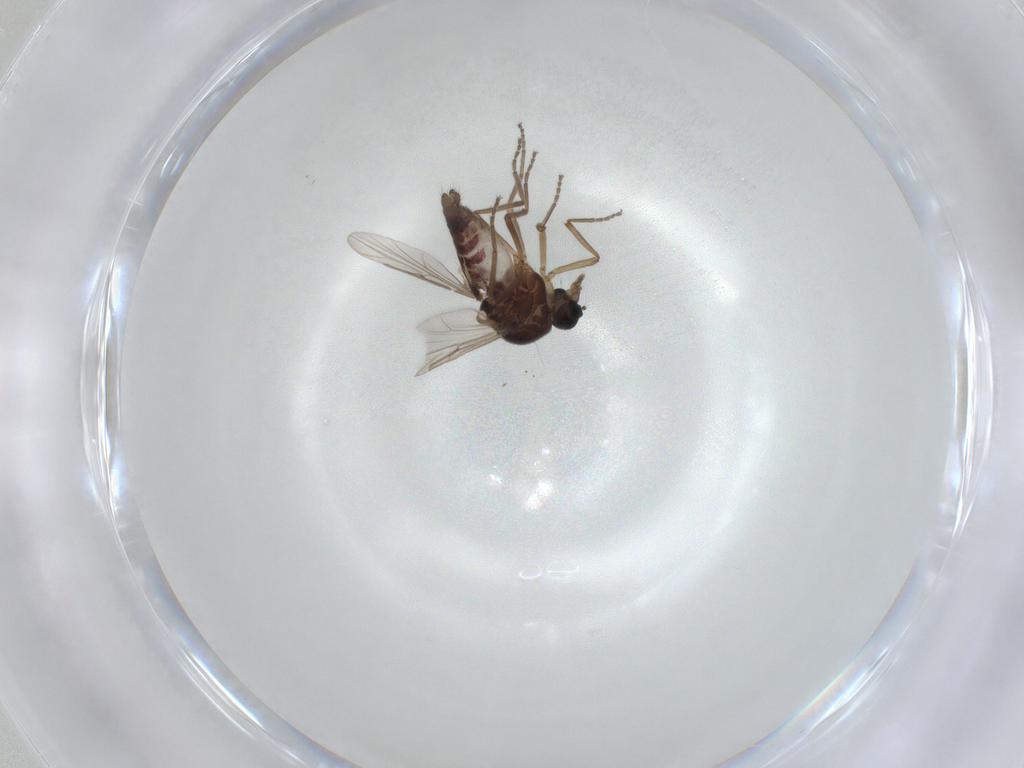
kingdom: Animalia
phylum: Arthropoda
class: Insecta
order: Diptera
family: Ceratopogonidae
